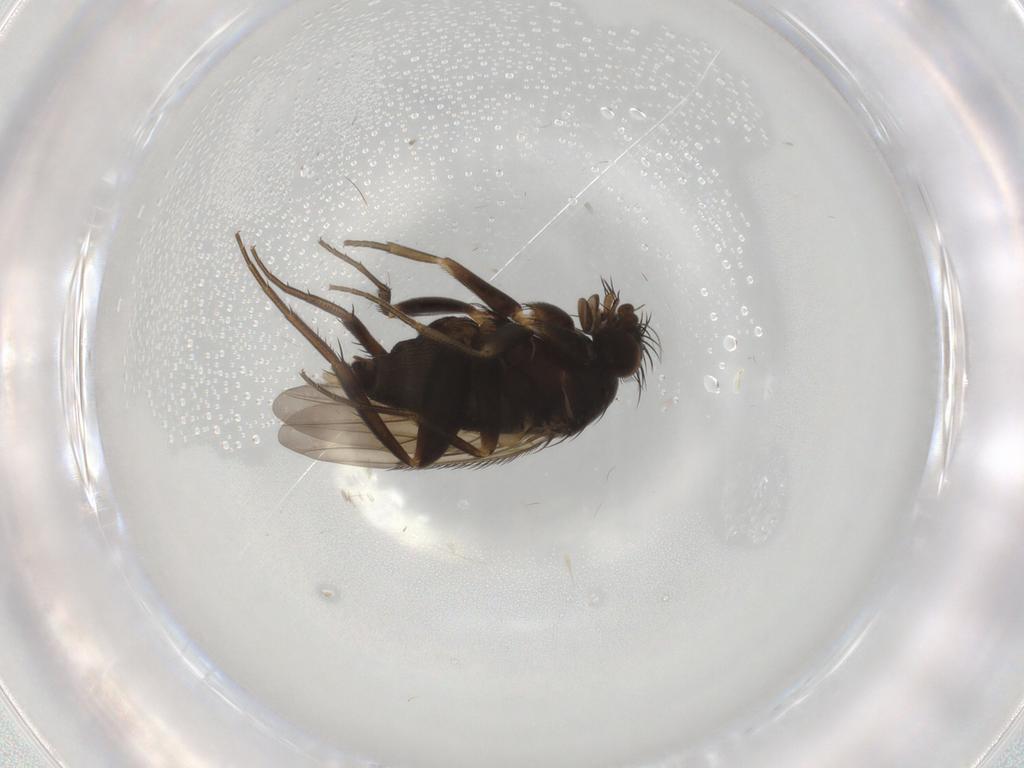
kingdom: Animalia
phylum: Arthropoda
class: Insecta
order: Diptera
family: Phoridae
